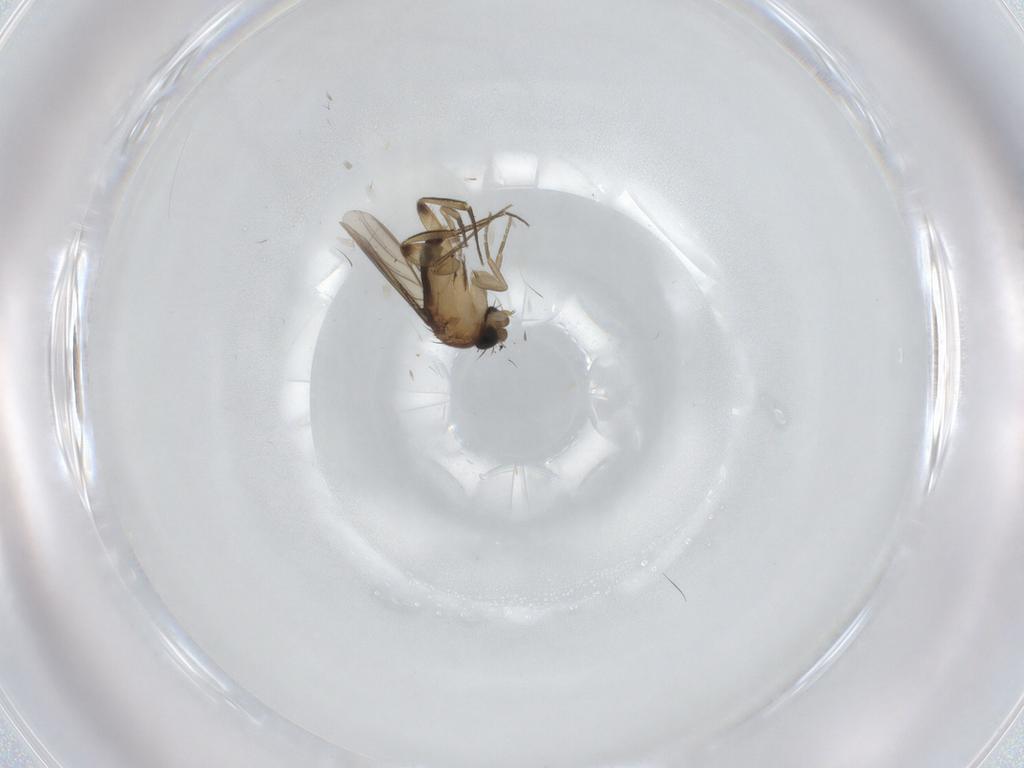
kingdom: Animalia
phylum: Arthropoda
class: Insecta
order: Diptera
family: Phoridae
